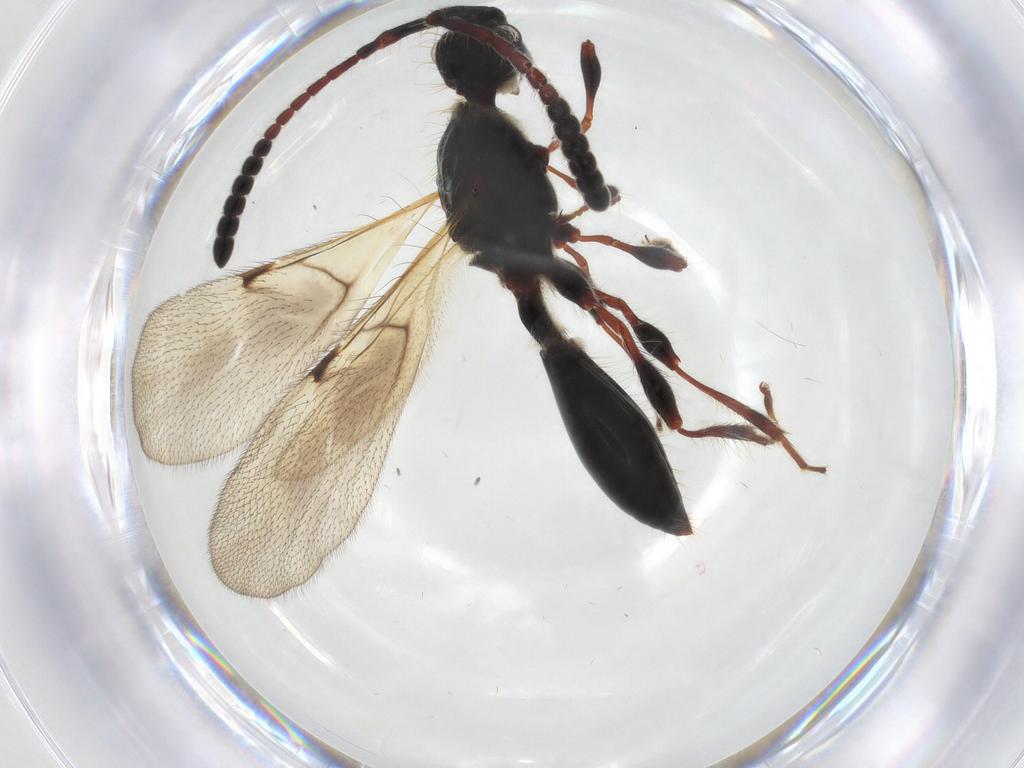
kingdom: Animalia
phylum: Arthropoda
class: Insecta
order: Hymenoptera
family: Diapriidae
